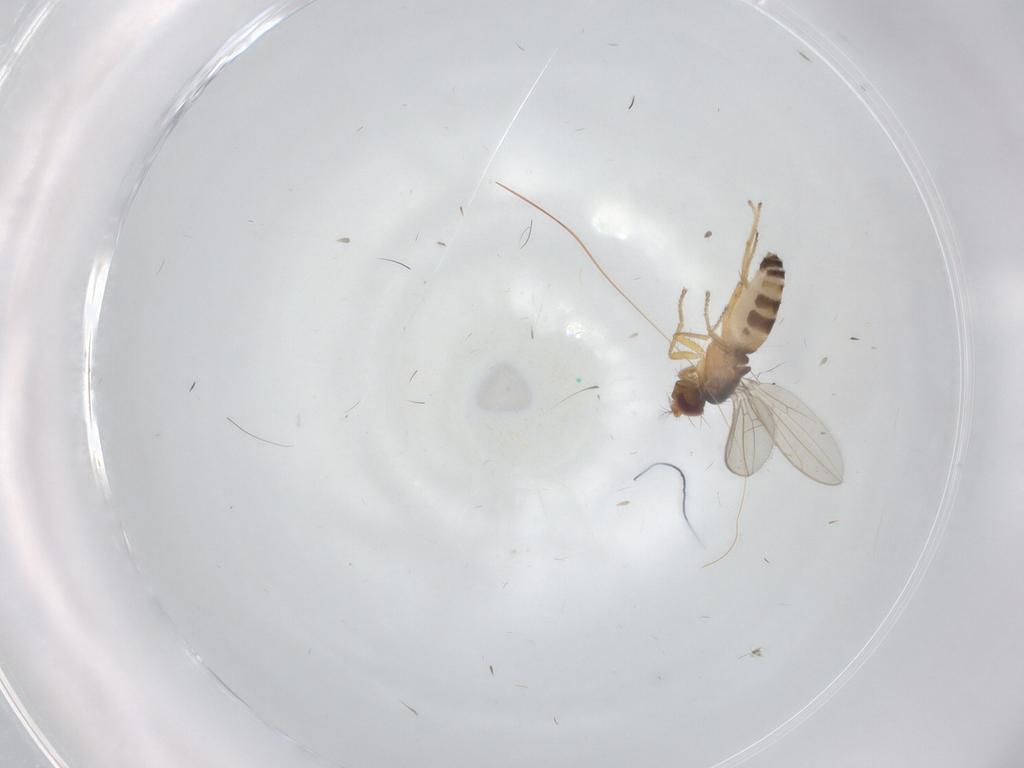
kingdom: Animalia
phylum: Arthropoda
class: Insecta
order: Diptera
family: Periscelididae
